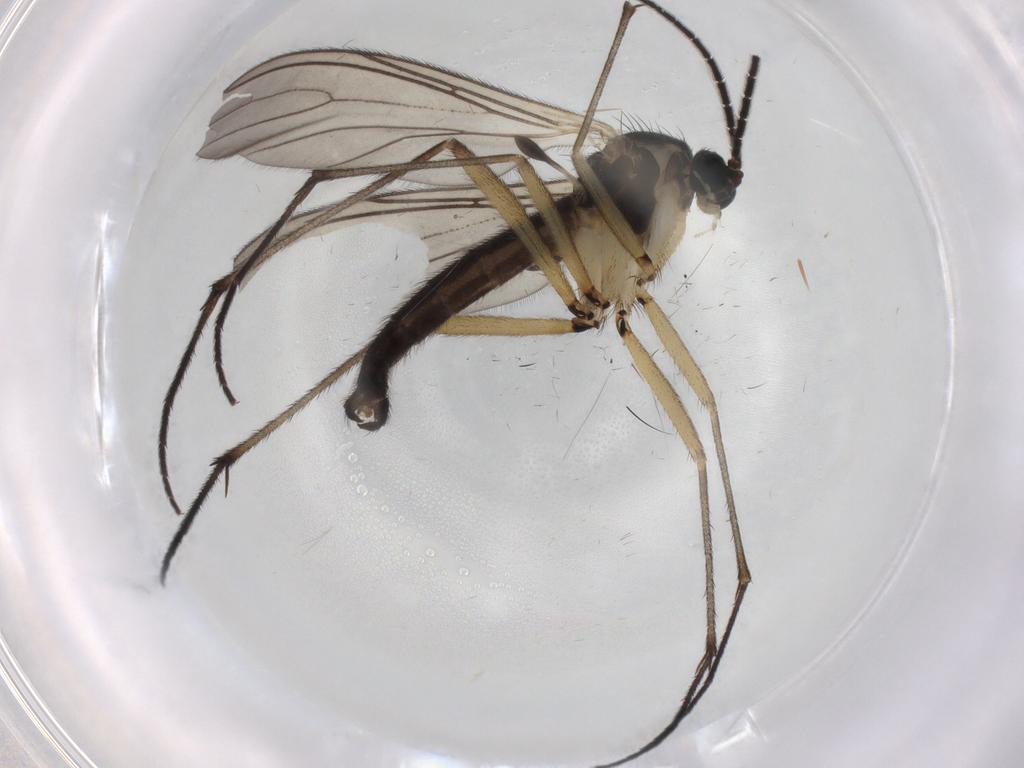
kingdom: Animalia
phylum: Arthropoda
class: Insecta
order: Diptera
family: Sciaridae
